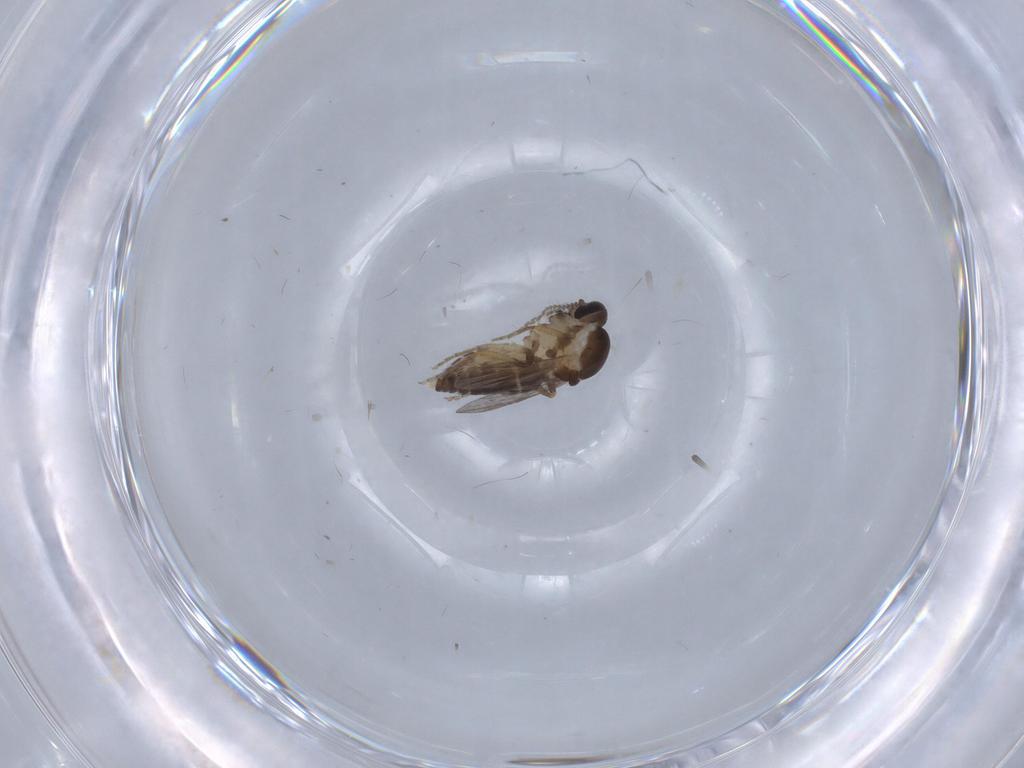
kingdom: Animalia
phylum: Arthropoda
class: Insecta
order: Diptera
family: Ceratopogonidae
